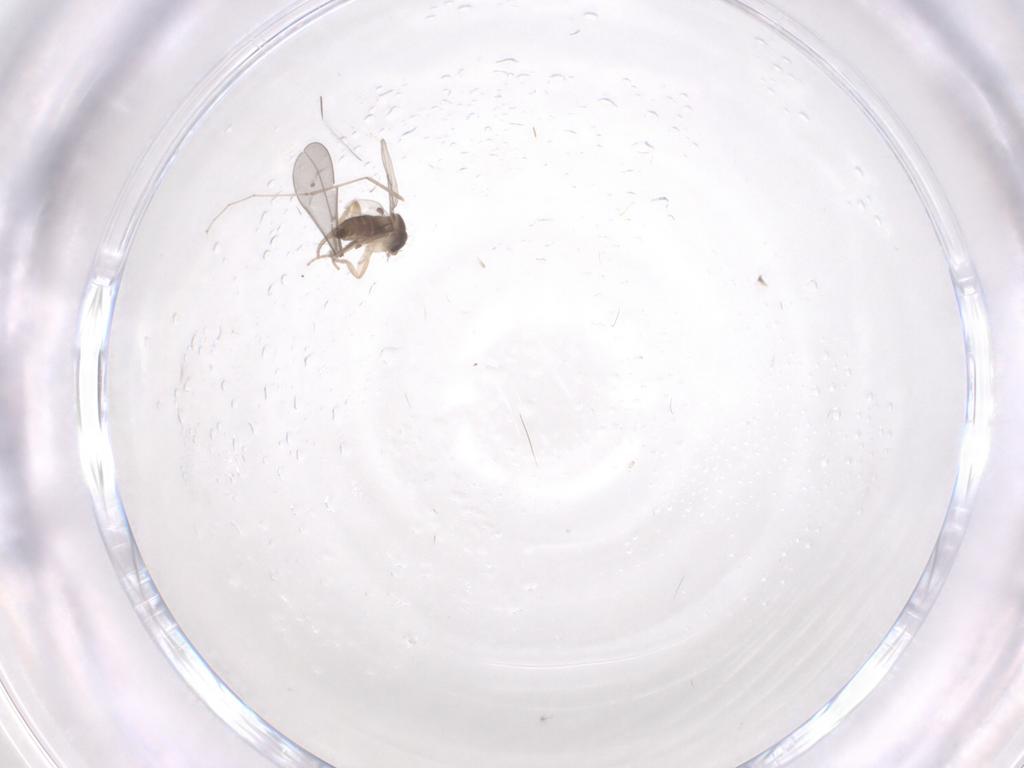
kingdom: Animalia
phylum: Arthropoda
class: Insecta
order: Diptera
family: Phoridae
